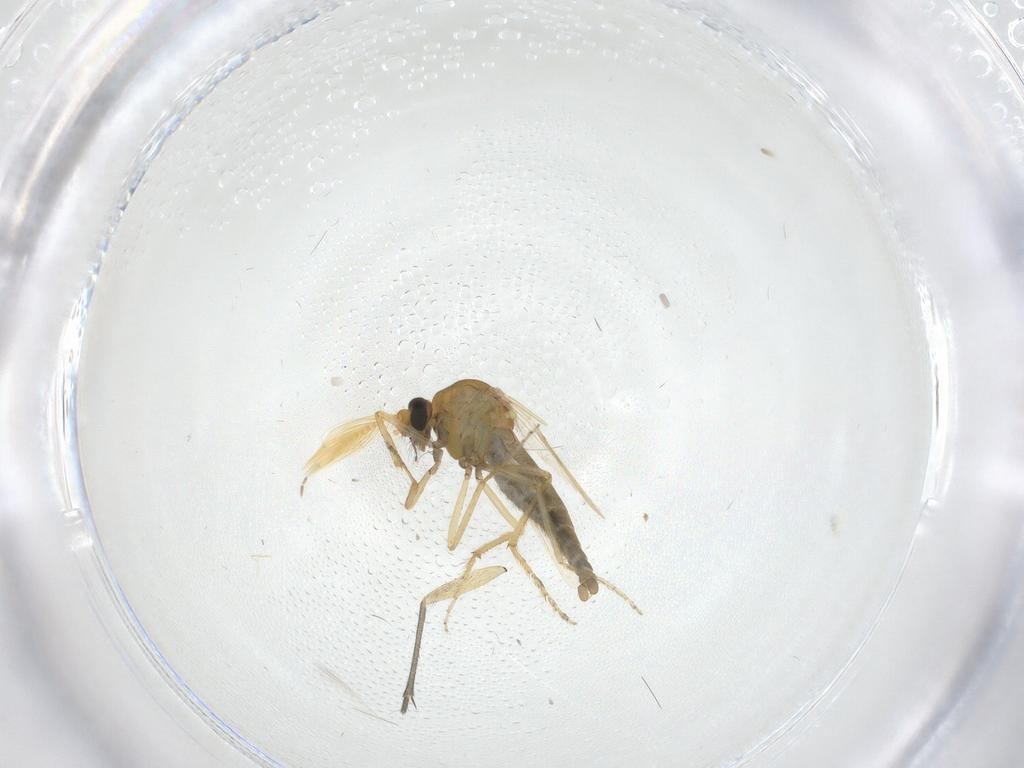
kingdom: Animalia
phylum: Arthropoda
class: Insecta
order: Diptera
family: Ceratopogonidae
